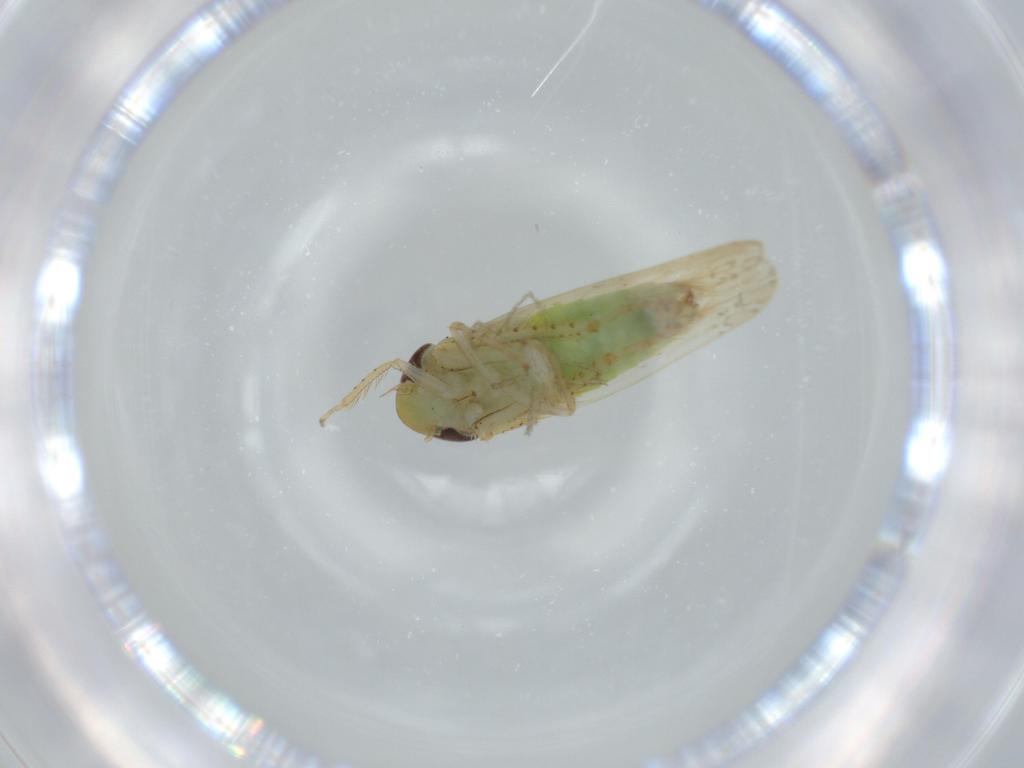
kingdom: Animalia
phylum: Arthropoda
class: Insecta
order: Hemiptera
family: Cicadellidae
